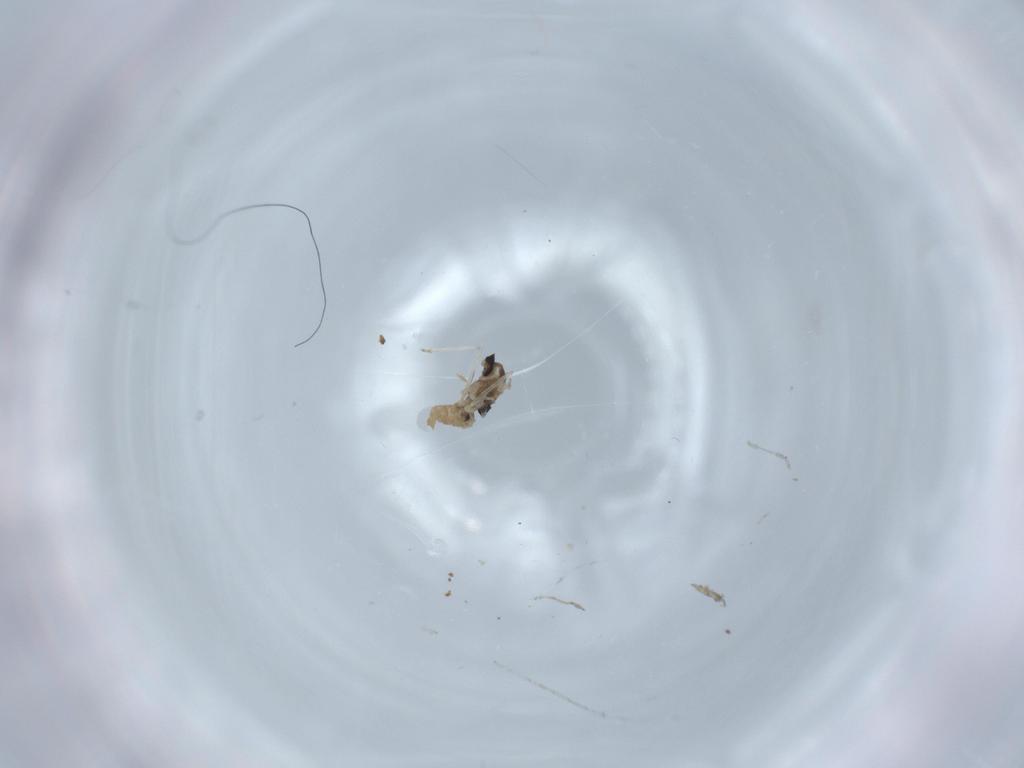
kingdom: Animalia
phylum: Arthropoda
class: Insecta
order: Diptera
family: Cecidomyiidae
